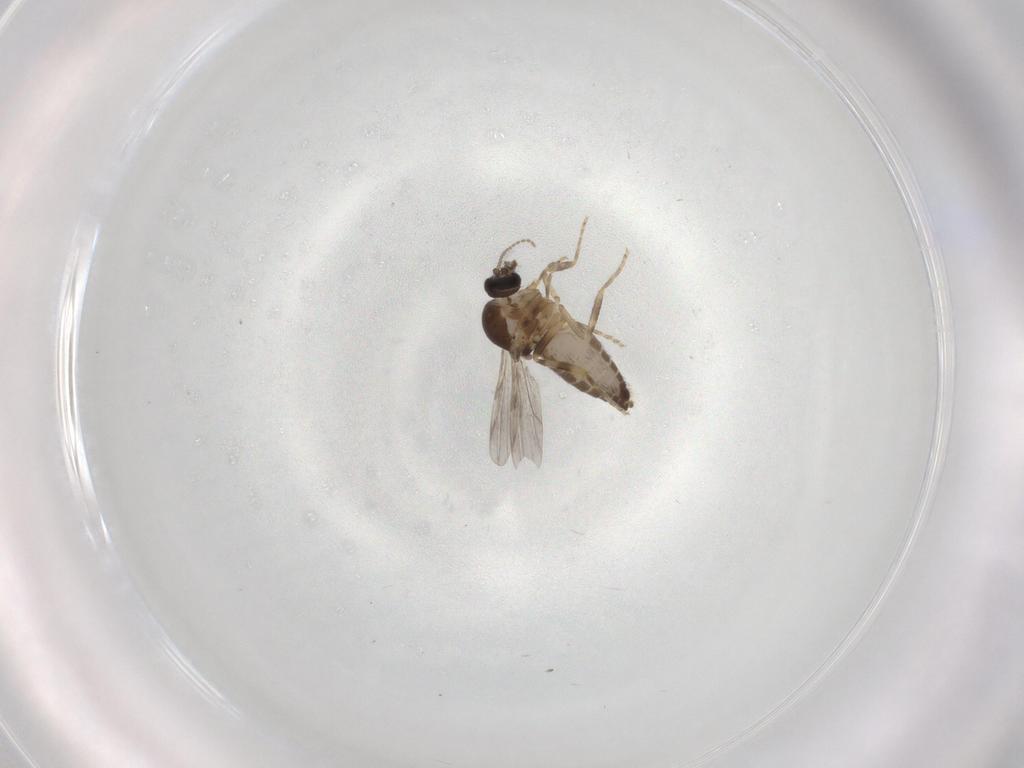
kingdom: Animalia
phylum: Arthropoda
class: Insecta
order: Diptera
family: Ceratopogonidae
